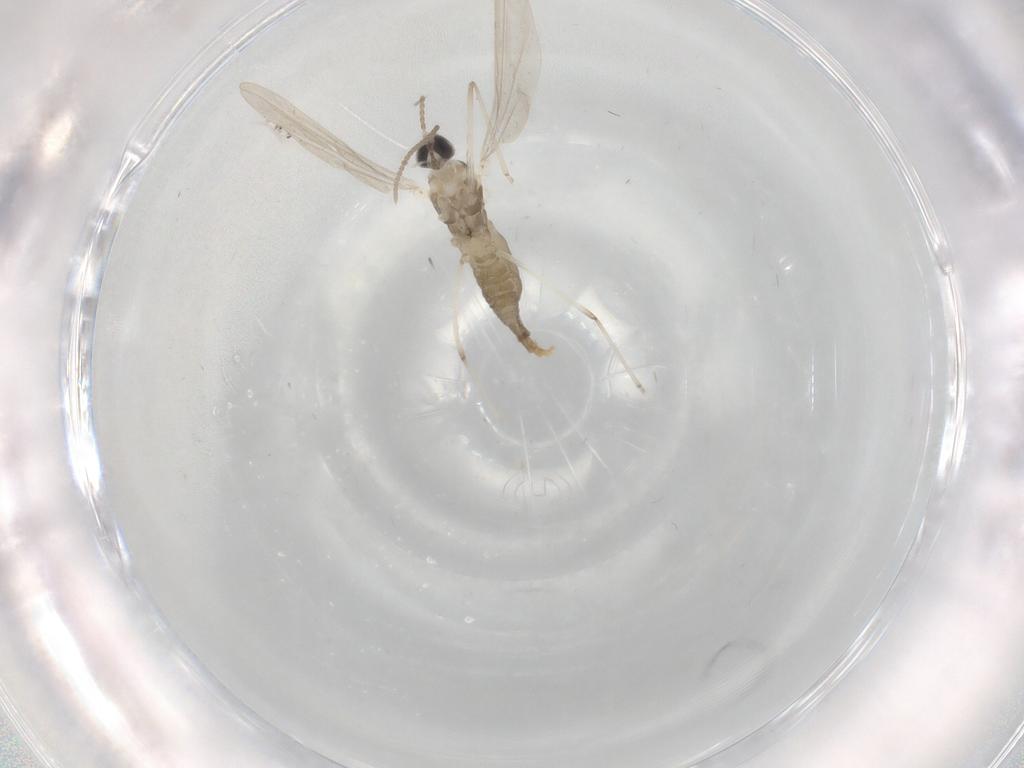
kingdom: Animalia
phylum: Arthropoda
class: Insecta
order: Diptera
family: Cecidomyiidae
